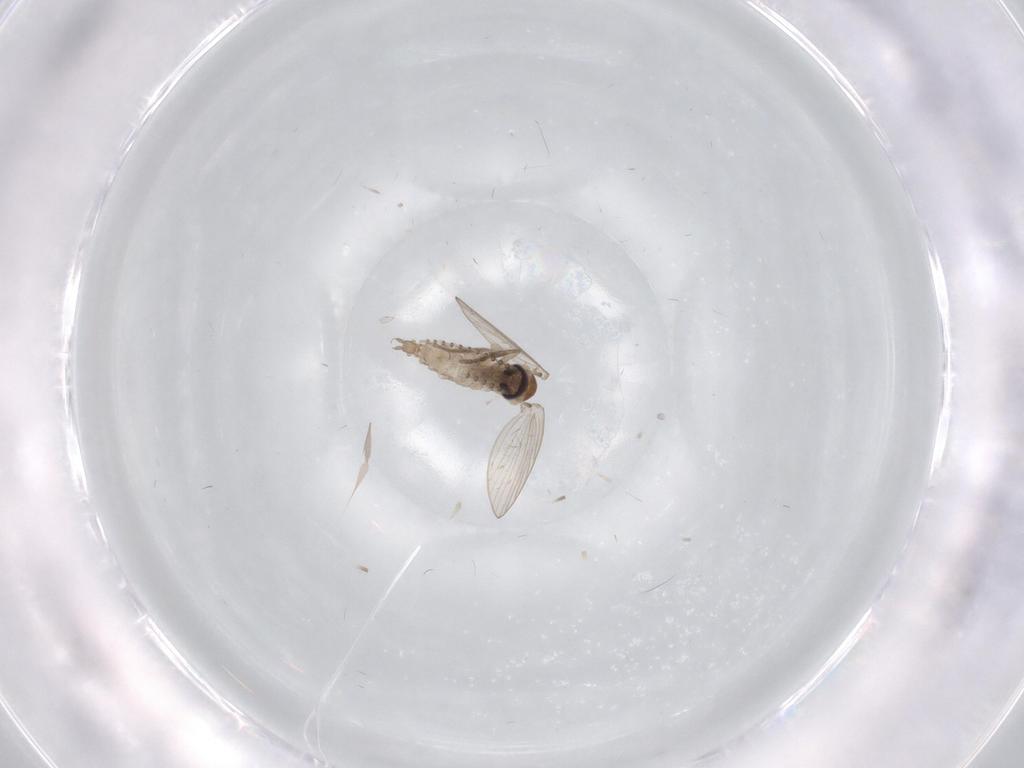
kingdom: Animalia
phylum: Arthropoda
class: Insecta
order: Diptera
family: Psychodidae
